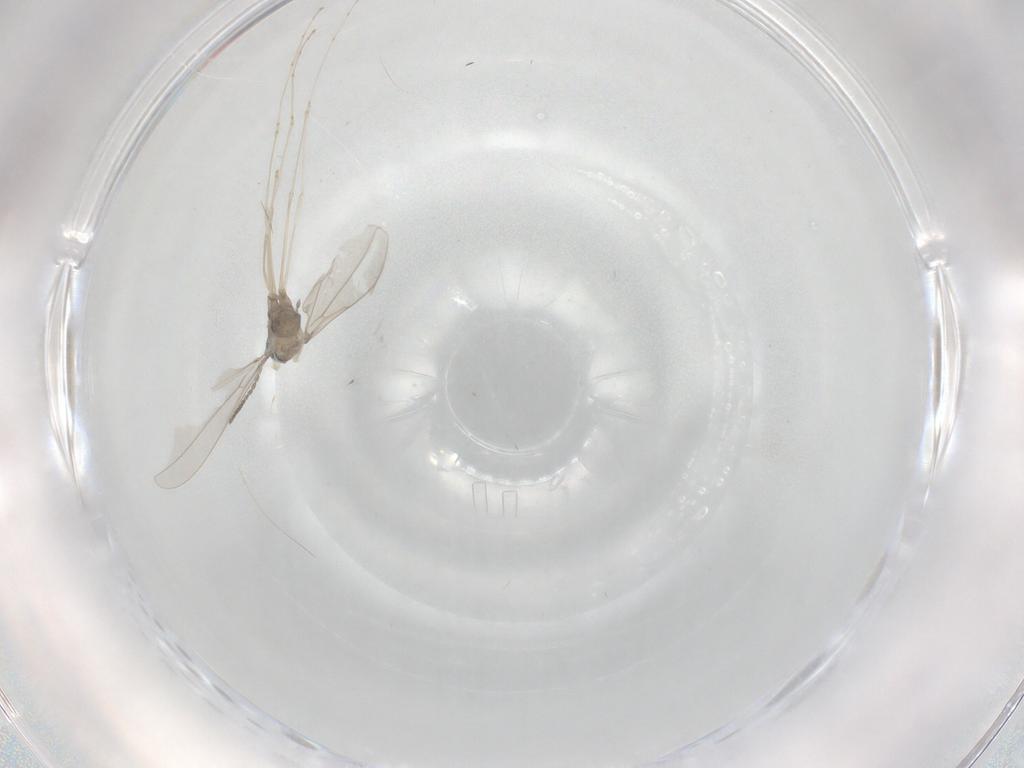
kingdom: Animalia
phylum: Arthropoda
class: Insecta
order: Diptera
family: Cecidomyiidae
